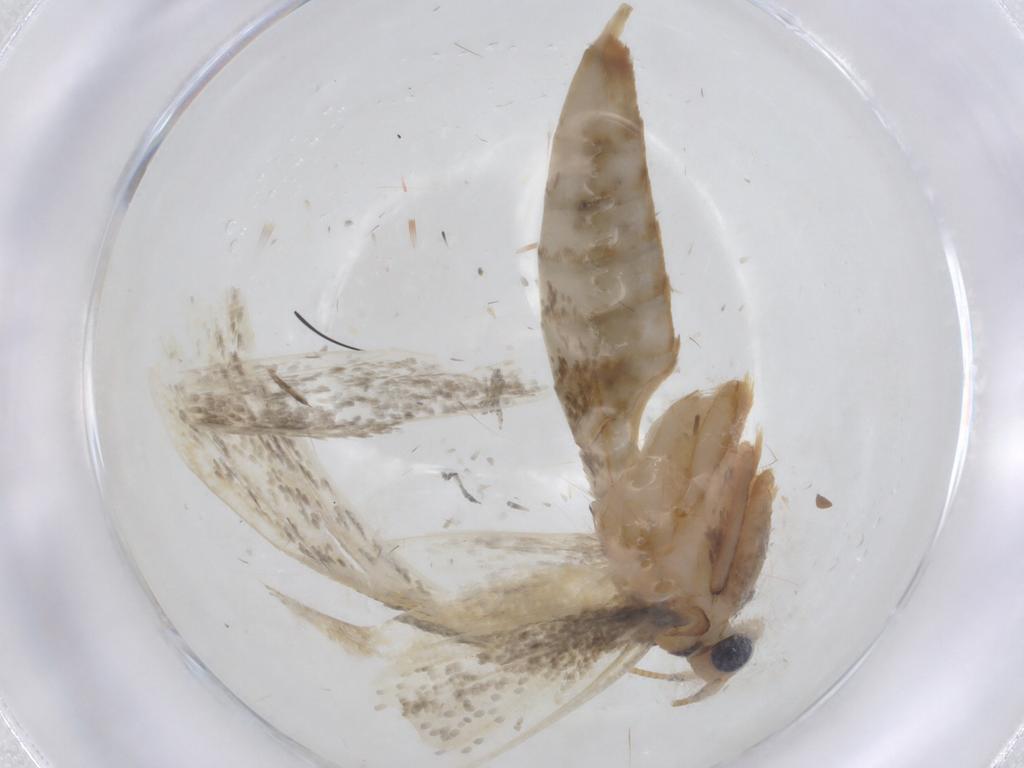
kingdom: Animalia
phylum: Arthropoda
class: Insecta
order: Lepidoptera
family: Tineidae
